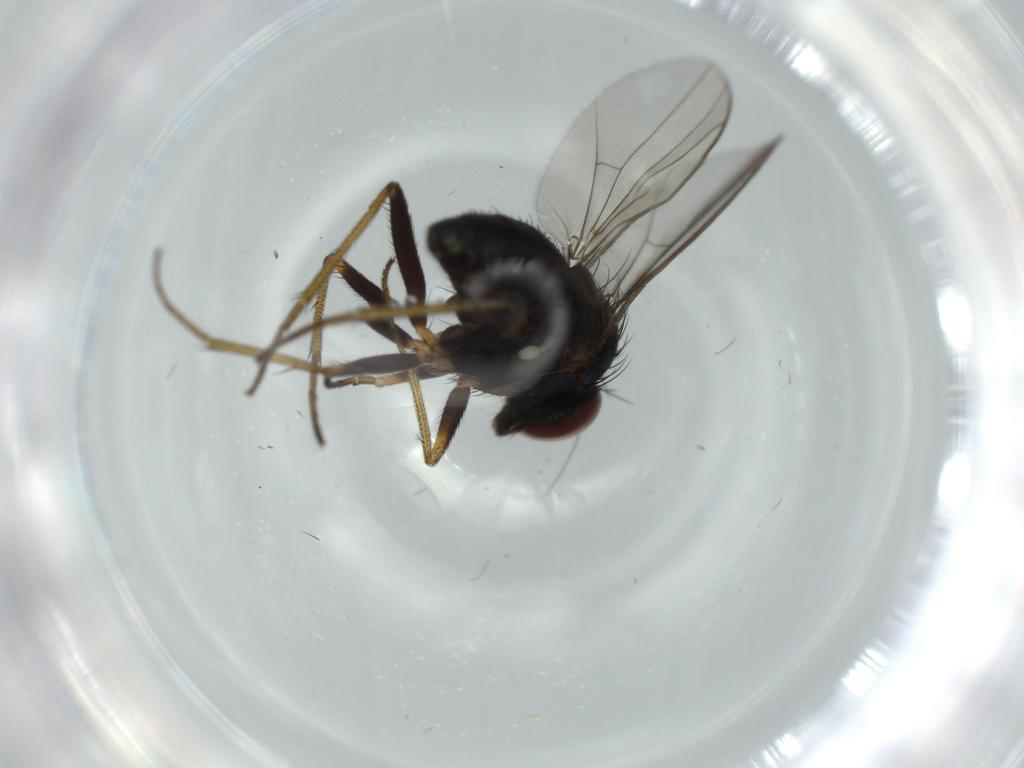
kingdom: Animalia
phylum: Arthropoda
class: Insecta
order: Diptera
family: Dolichopodidae
